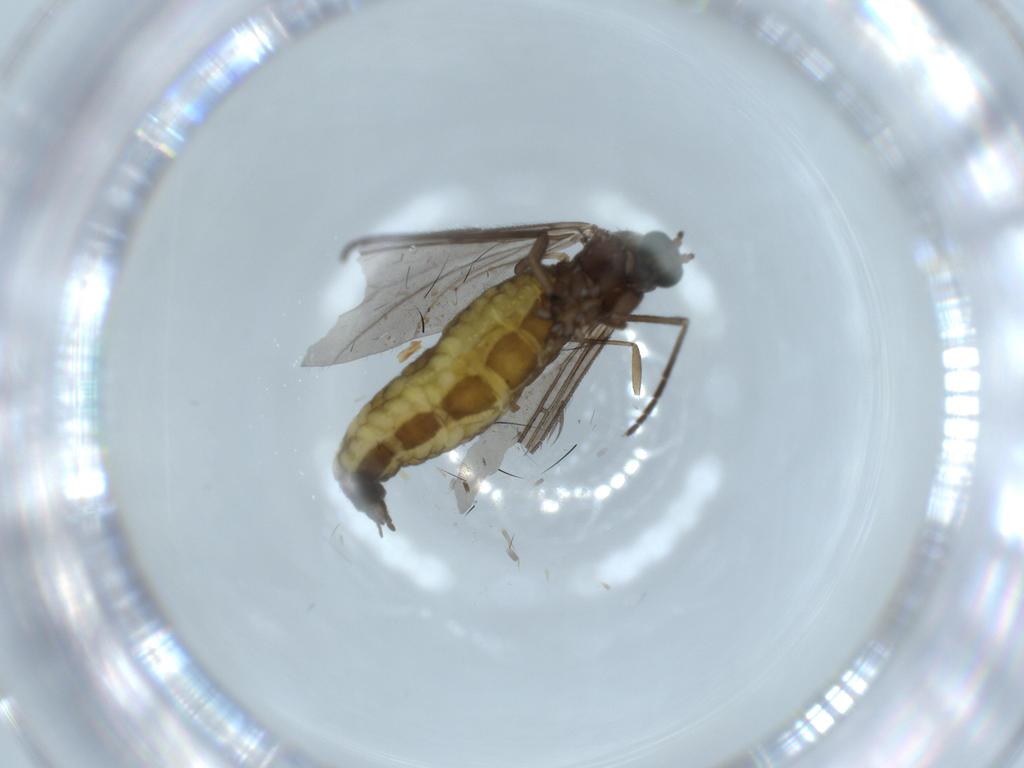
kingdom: Animalia
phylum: Arthropoda
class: Insecta
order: Diptera
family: Sciaridae
